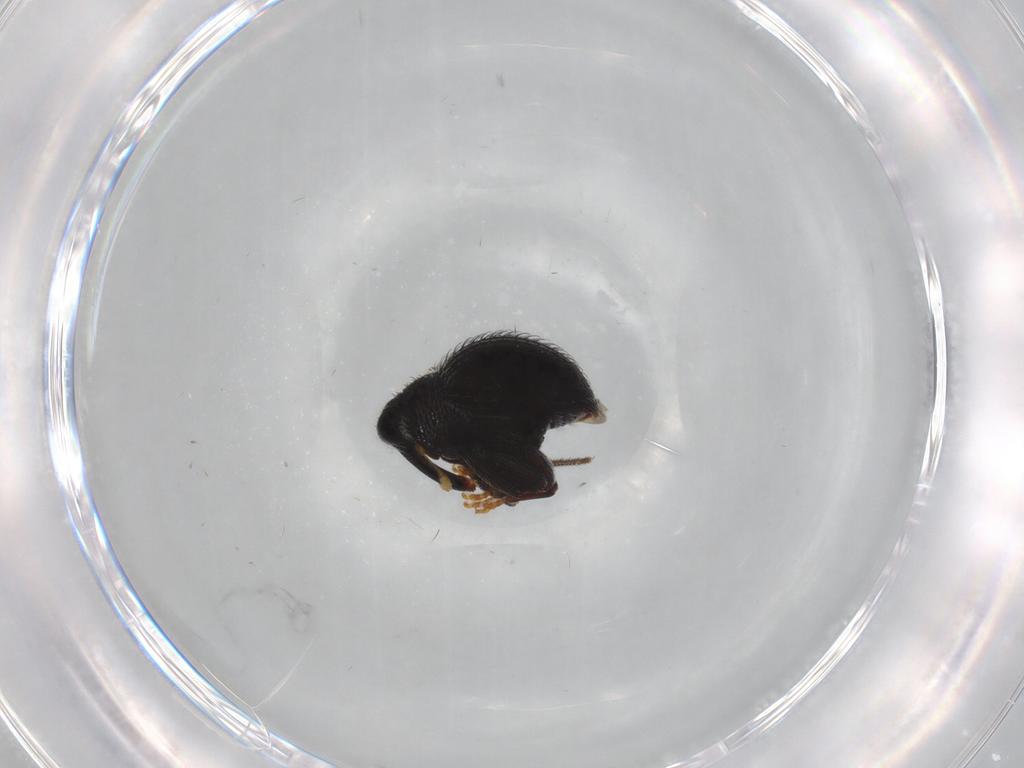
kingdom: Animalia
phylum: Arthropoda
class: Insecta
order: Coleoptera
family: Curculionidae
